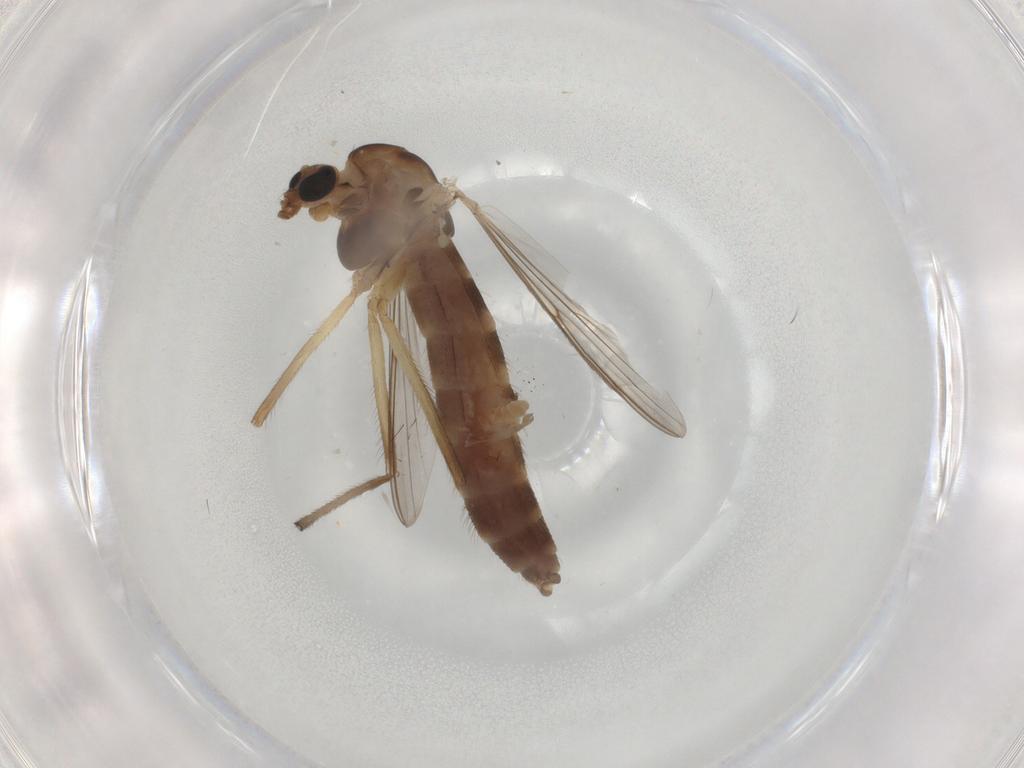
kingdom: Animalia
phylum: Arthropoda
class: Insecta
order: Diptera
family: Chironomidae
